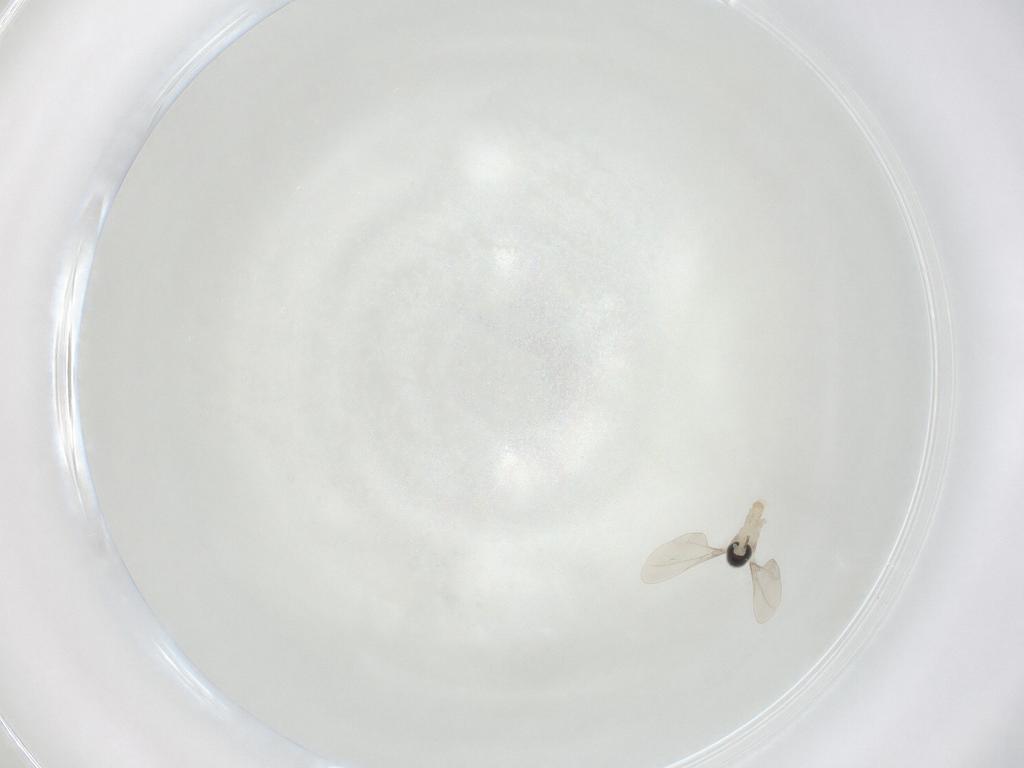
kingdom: Animalia
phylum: Arthropoda
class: Insecta
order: Diptera
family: Cecidomyiidae
